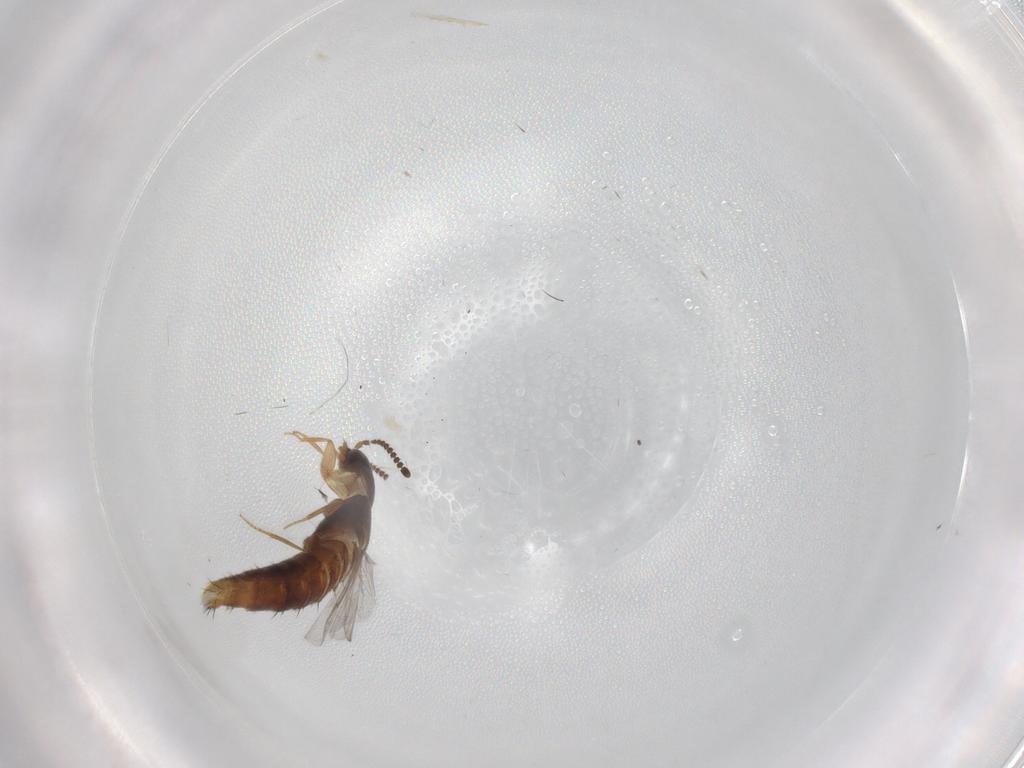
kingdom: Animalia
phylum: Arthropoda
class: Insecta
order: Coleoptera
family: Staphylinidae
